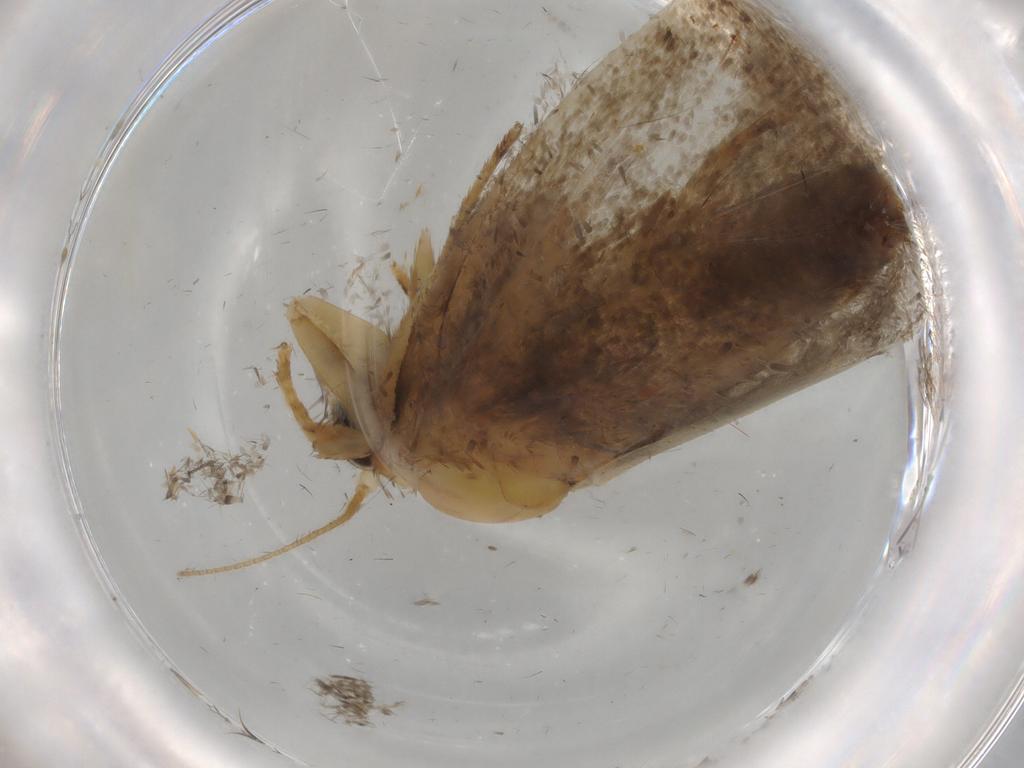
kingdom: Animalia
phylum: Arthropoda
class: Insecta
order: Lepidoptera
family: Tineidae
